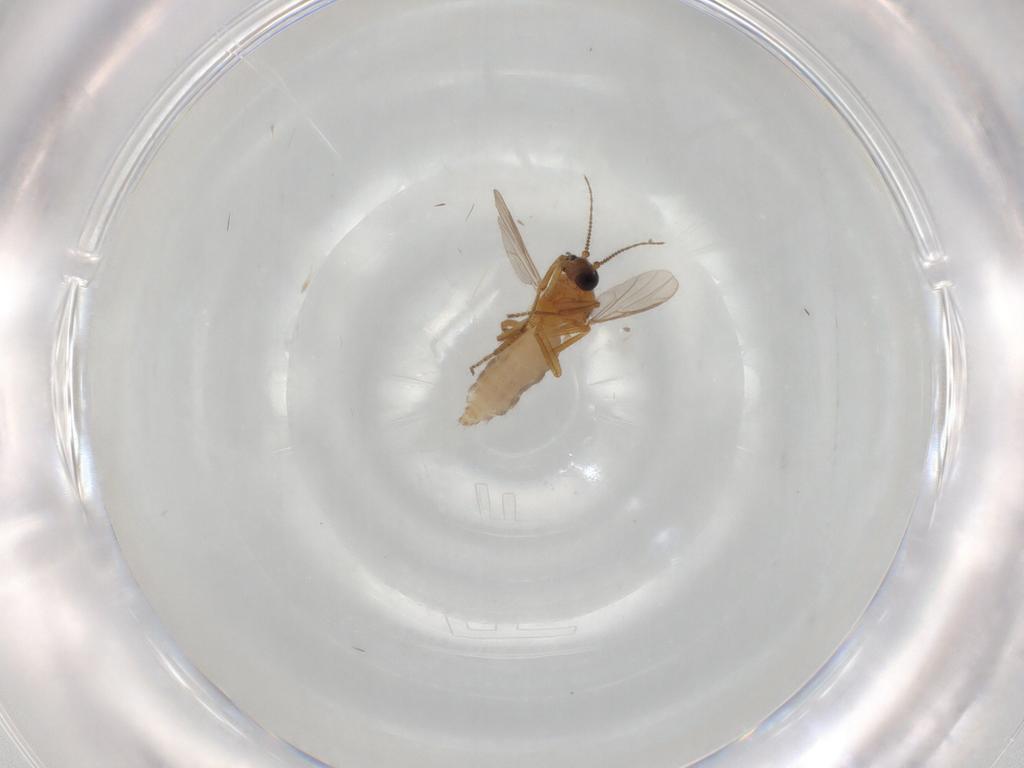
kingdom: Animalia
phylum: Arthropoda
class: Insecta
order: Diptera
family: Ceratopogonidae
